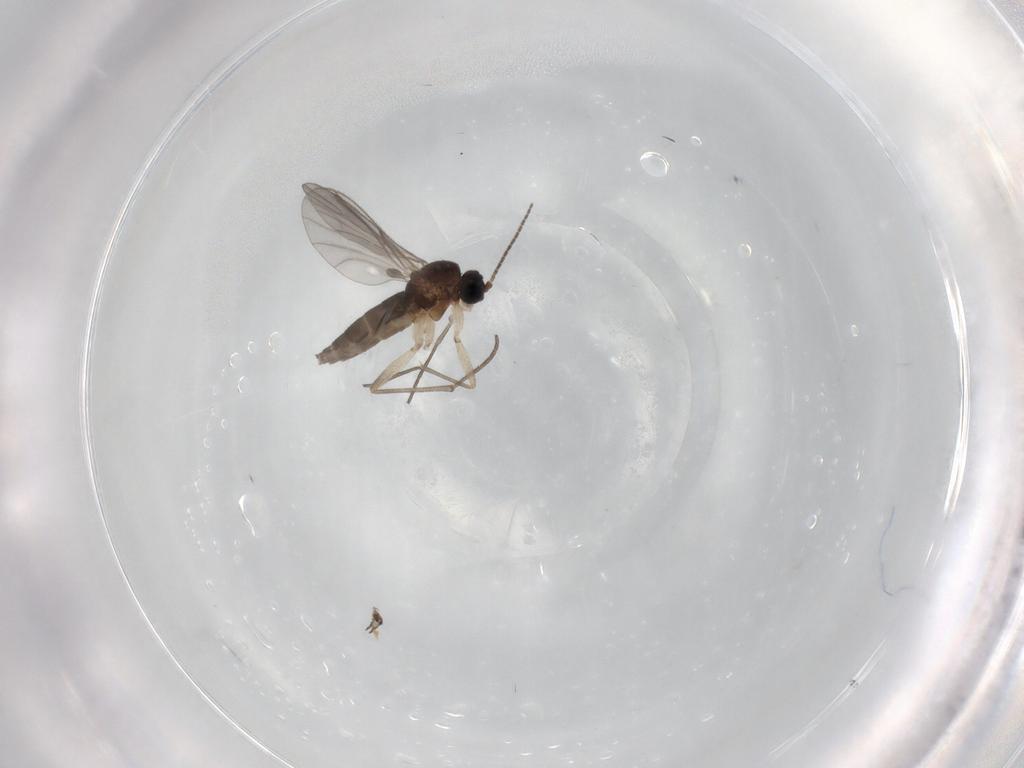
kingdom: Animalia
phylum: Arthropoda
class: Insecta
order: Diptera
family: Sciaridae
